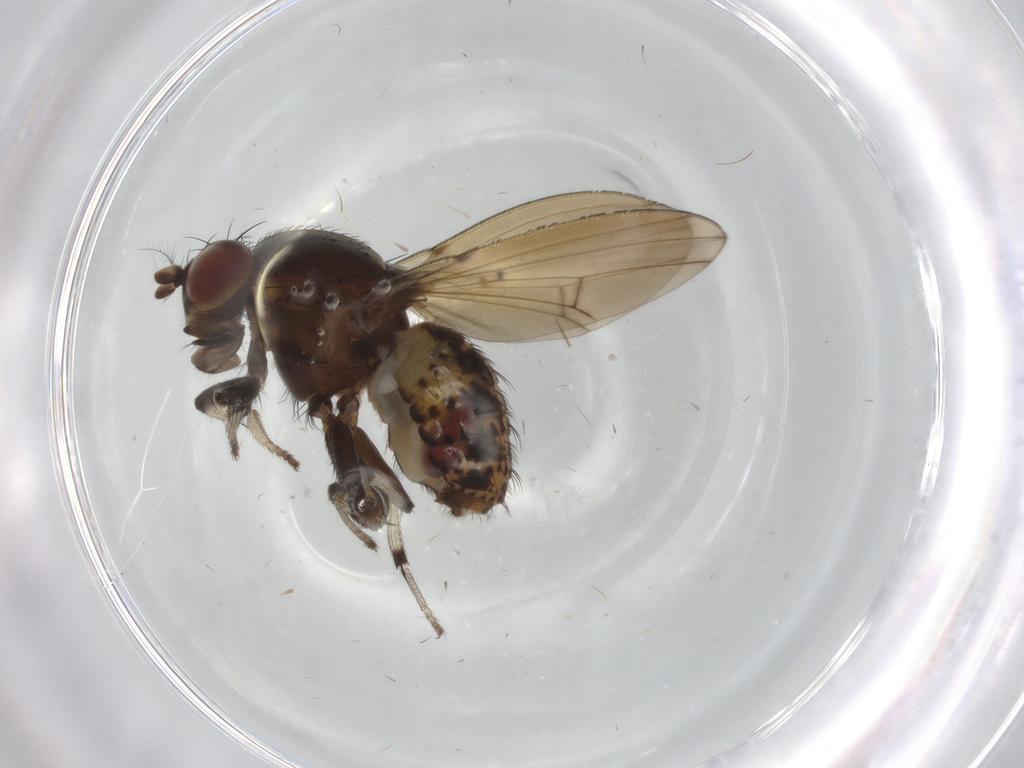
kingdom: Animalia
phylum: Arthropoda
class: Insecta
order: Diptera
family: Lauxaniidae
